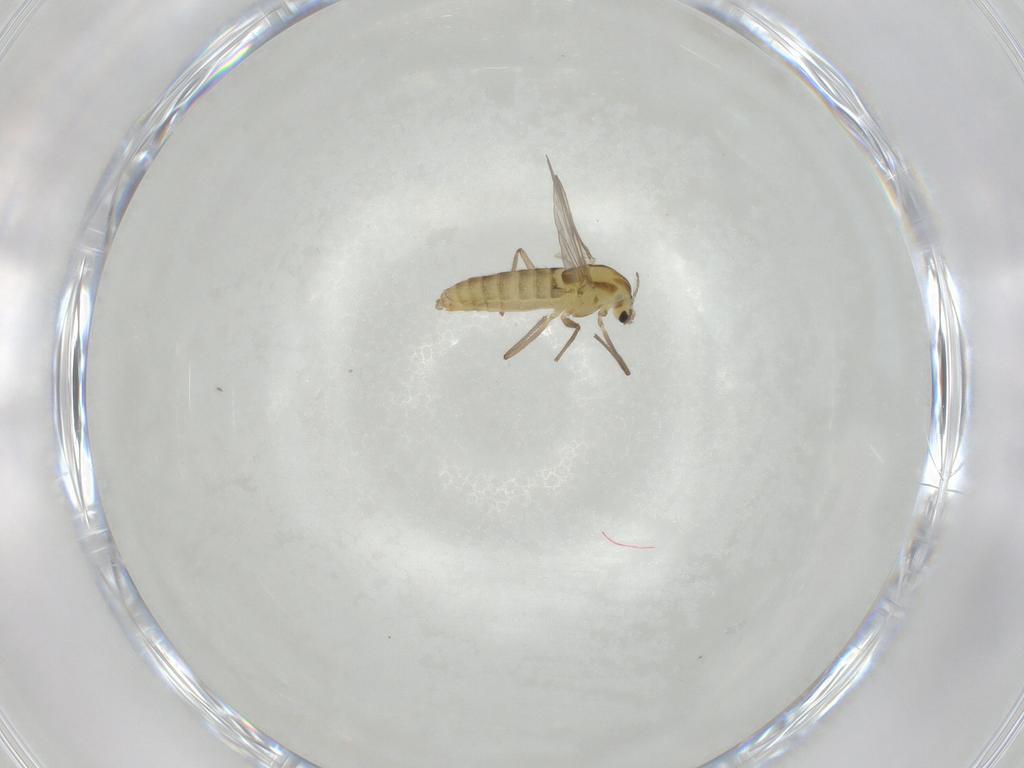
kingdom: Animalia
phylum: Arthropoda
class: Insecta
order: Diptera
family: Chironomidae
